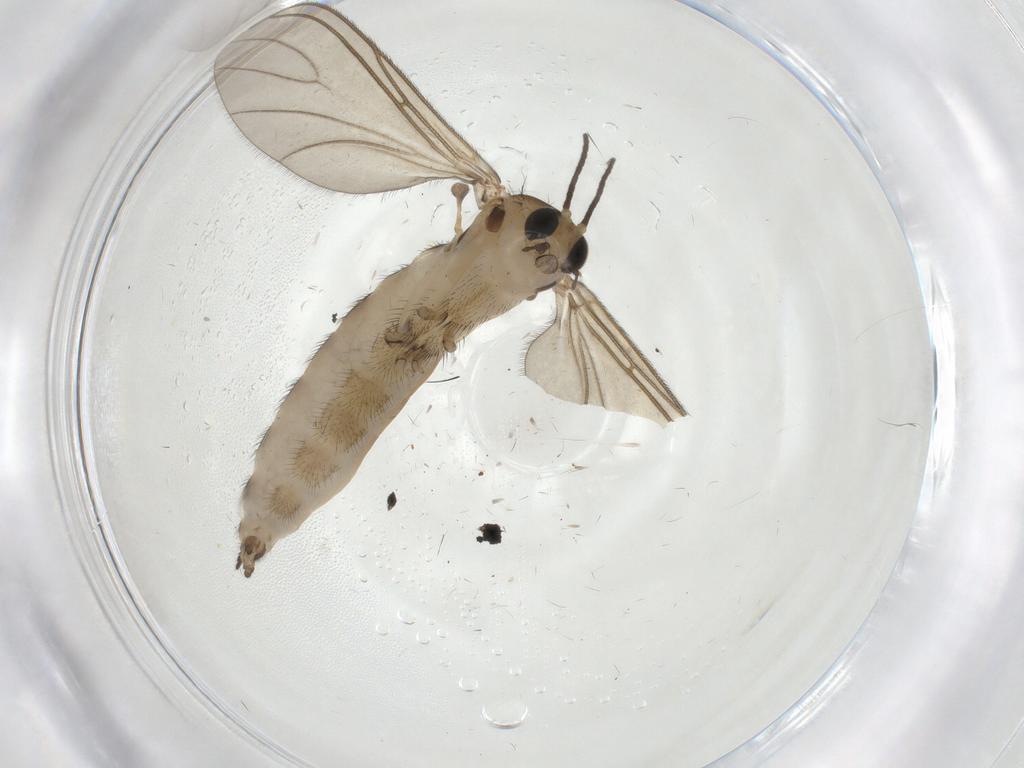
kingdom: Animalia
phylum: Arthropoda
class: Insecta
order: Diptera
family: Sciaridae
